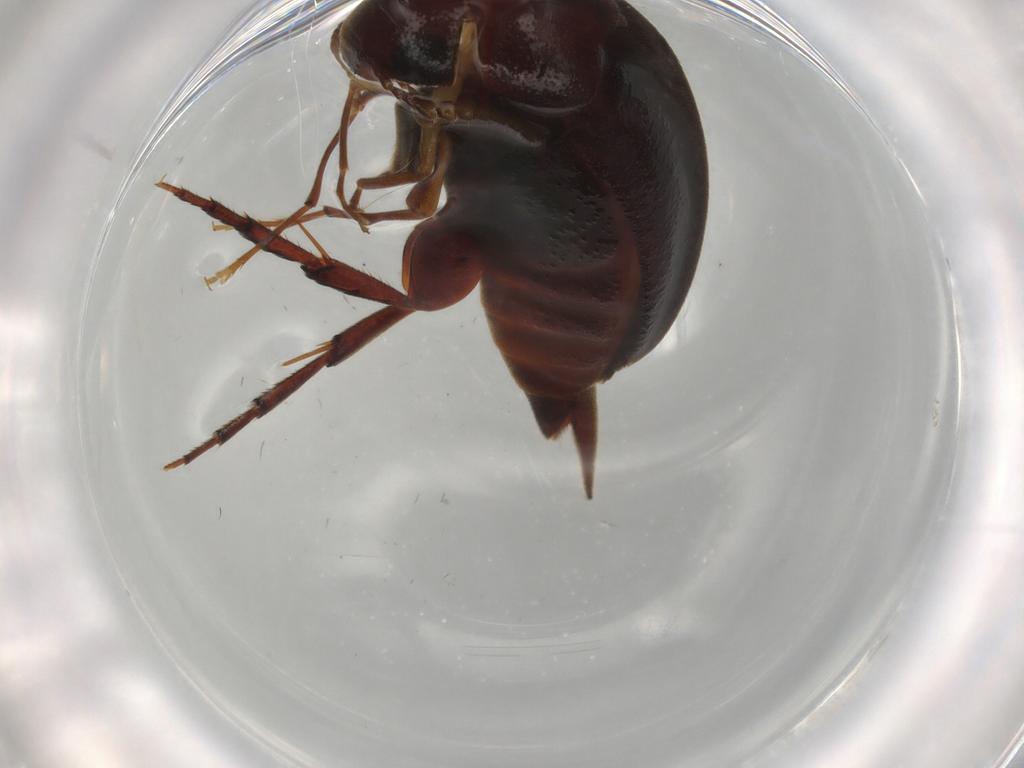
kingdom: Animalia
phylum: Arthropoda
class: Insecta
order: Coleoptera
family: Mordellidae
